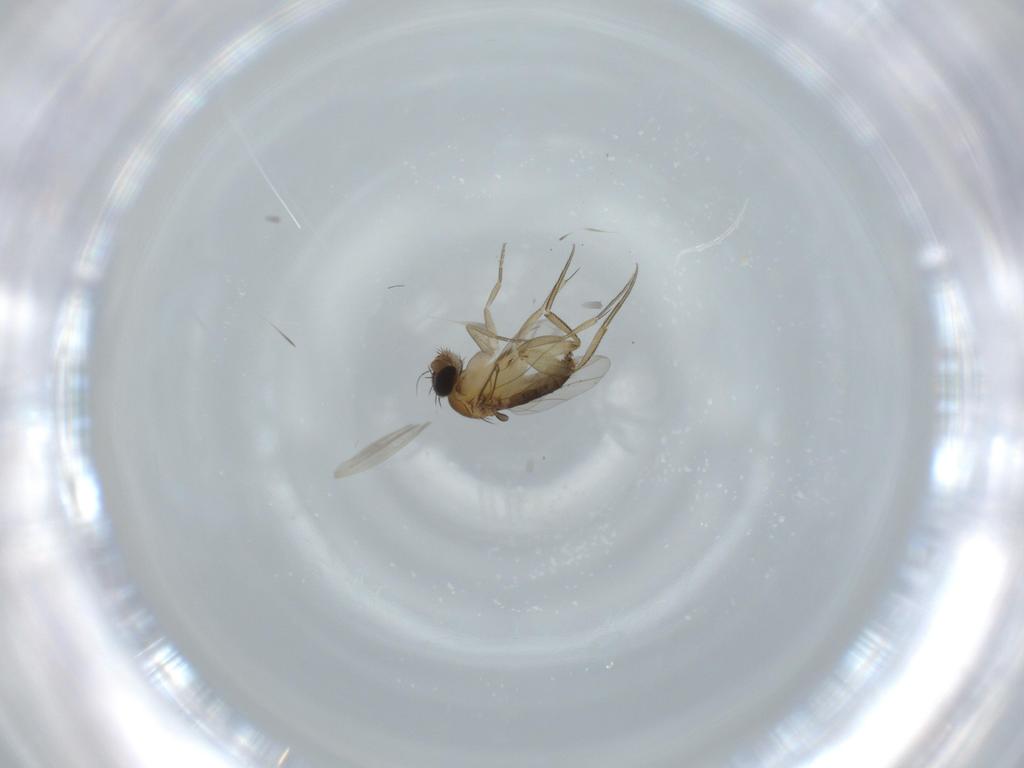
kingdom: Animalia
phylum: Arthropoda
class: Insecta
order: Diptera
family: Phoridae
